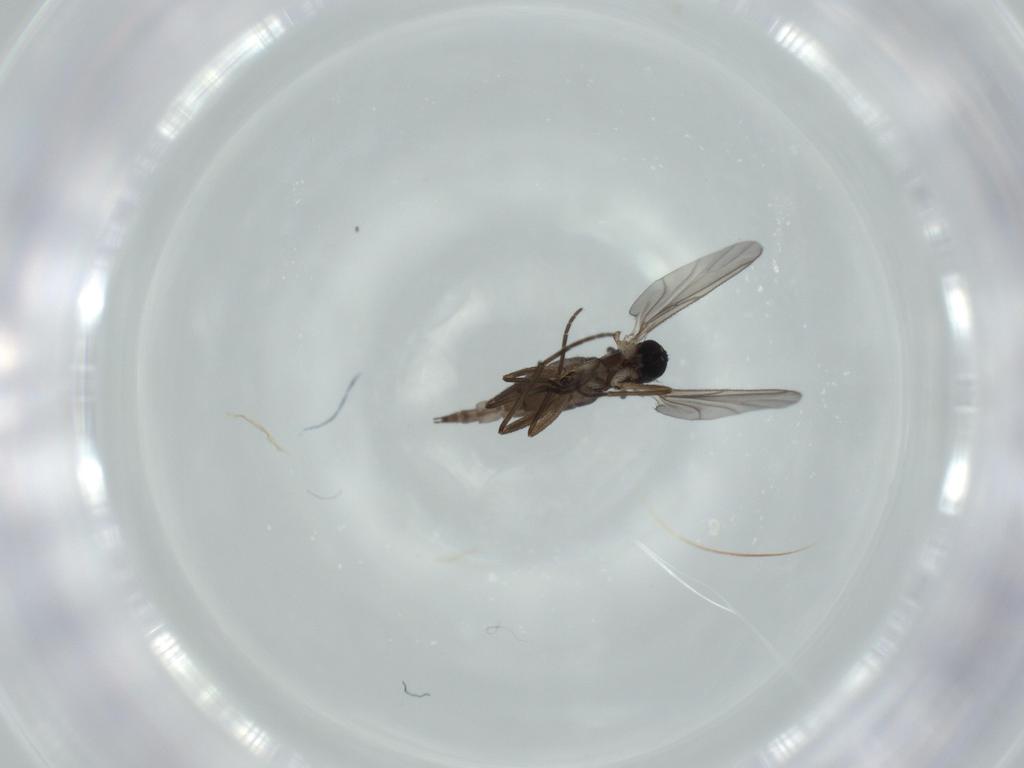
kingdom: Animalia
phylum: Arthropoda
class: Insecta
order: Diptera
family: Sciaridae
